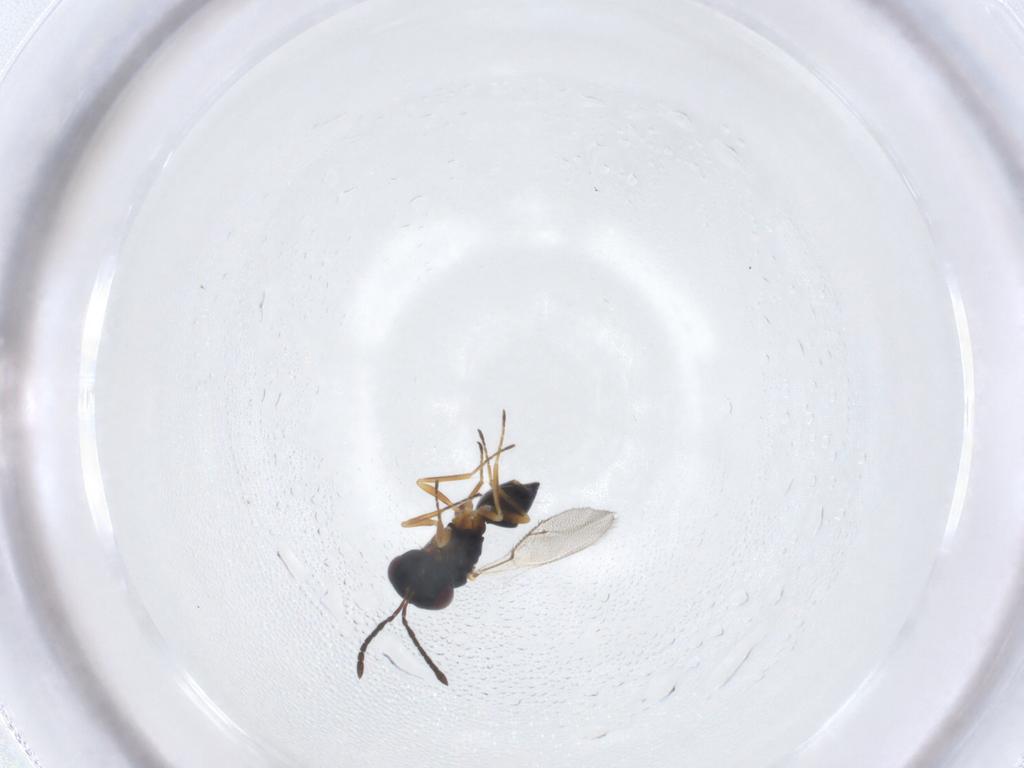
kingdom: Animalia
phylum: Arthropoda
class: Insecta
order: Hymenoptera
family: Pteromalidae
